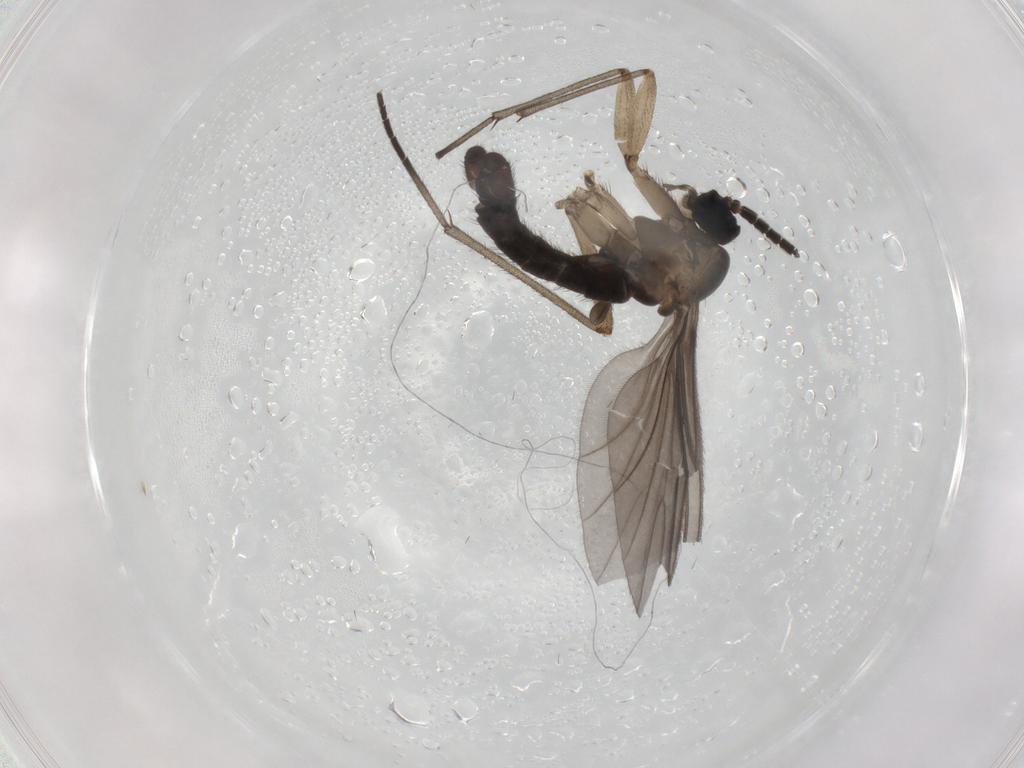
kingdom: Animalia
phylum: Arthropoda
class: Insecta
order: Diptera
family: Sciaridae
